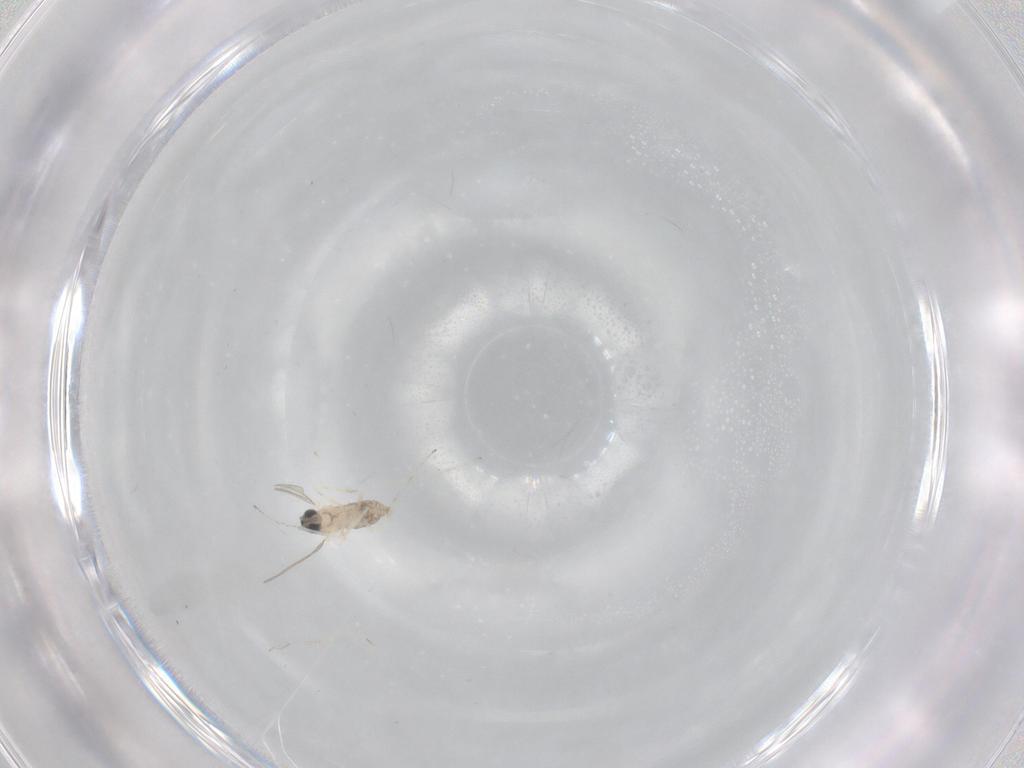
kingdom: Animalia
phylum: Arthropoda
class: Insecta
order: Diptera
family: Cecidomyiidae
